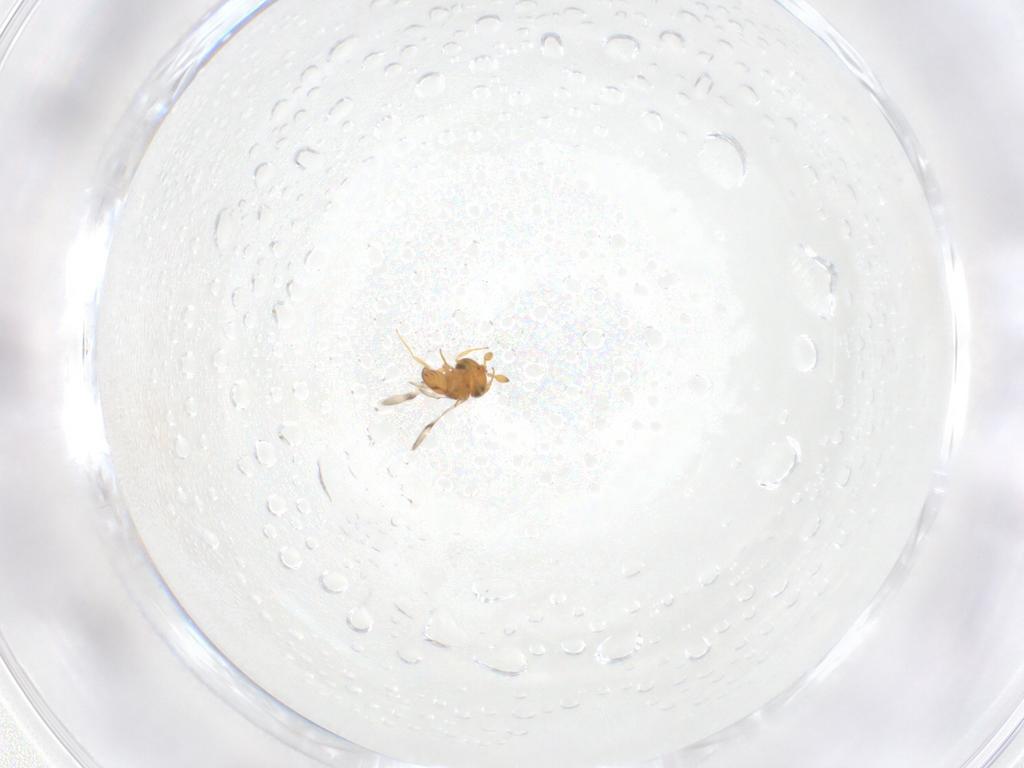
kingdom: Animalia
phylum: Arthropoda
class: Insecta
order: Hymenoptera
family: Scelionidae
